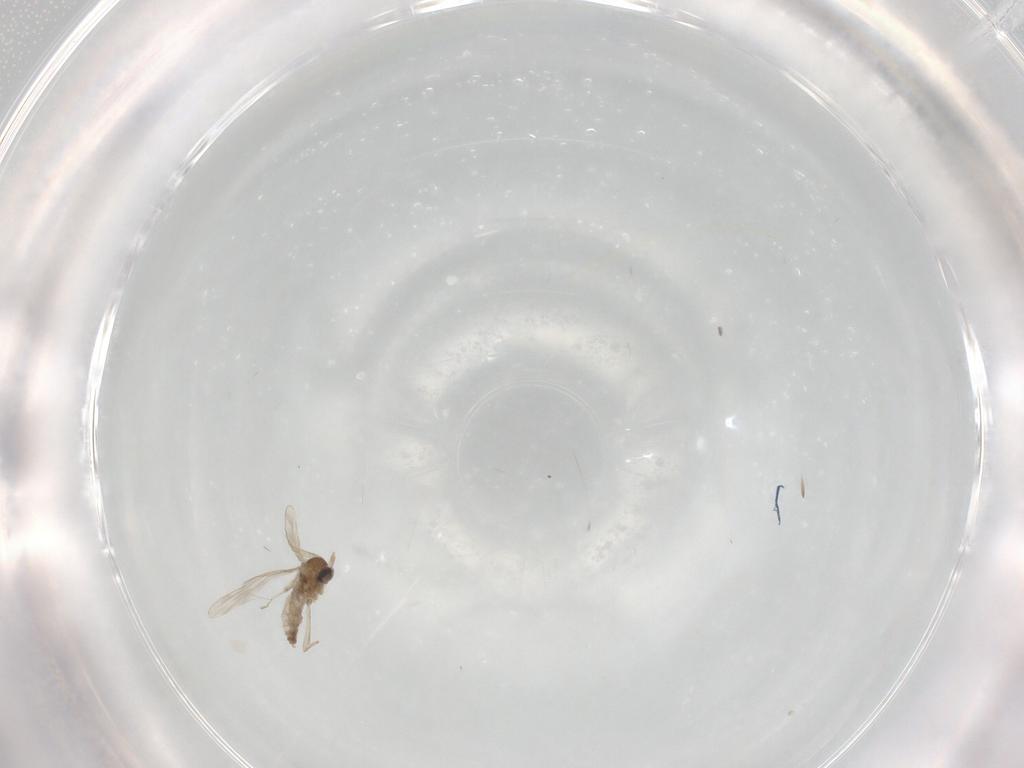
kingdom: Animalia
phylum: Arthropoda
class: Insecta
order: Diptera
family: Cecidomyiidae
